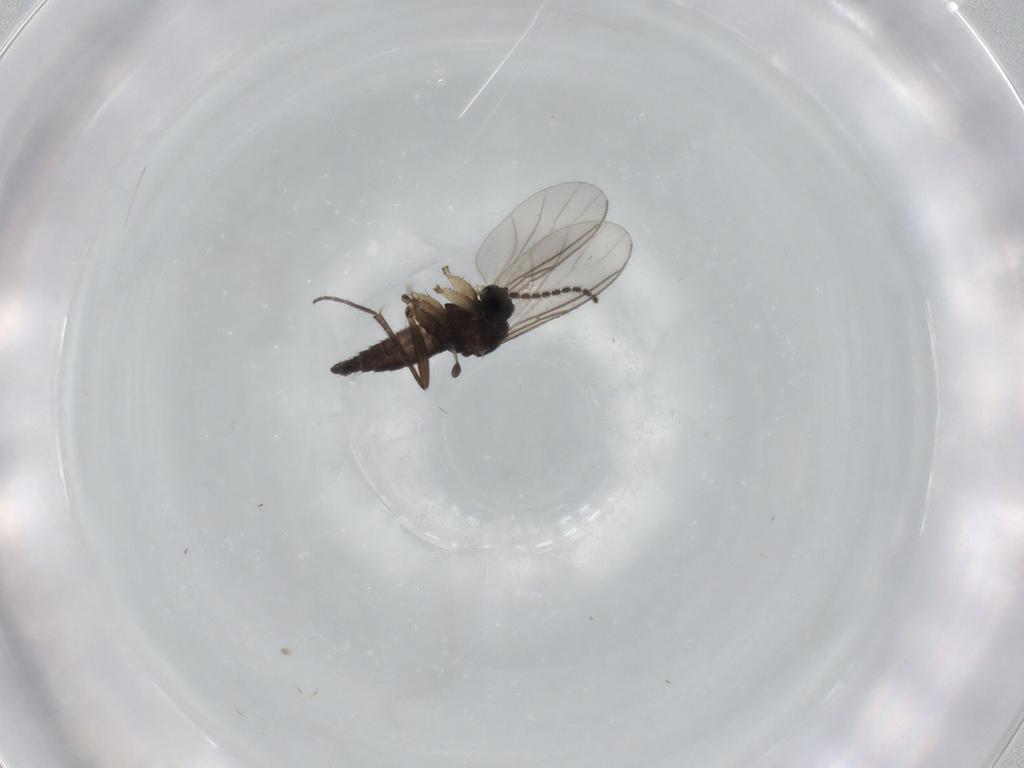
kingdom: Animalia
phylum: Arthropoda
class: Insecta
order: Diptera
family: Sciaridae
